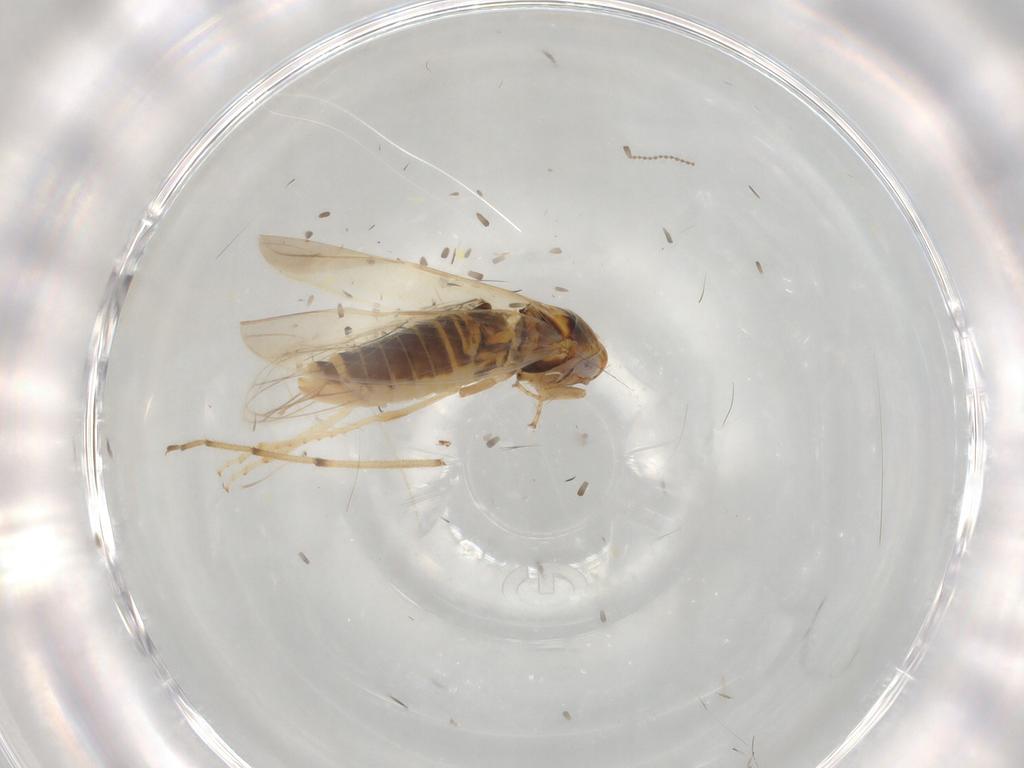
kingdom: Animalia
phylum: Arthropoda
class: Insecta
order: Hemiptera
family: Cicadellidae
